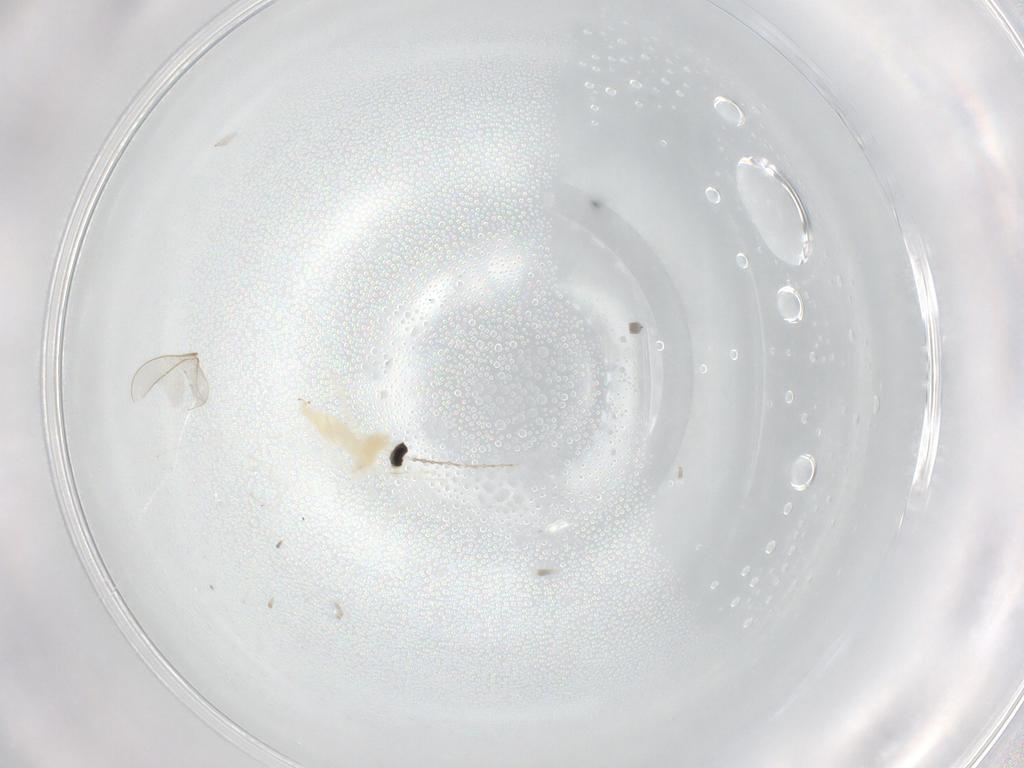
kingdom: Animalia
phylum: Arthropoda
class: Insecta
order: Diptera
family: Cecidomyiidae
